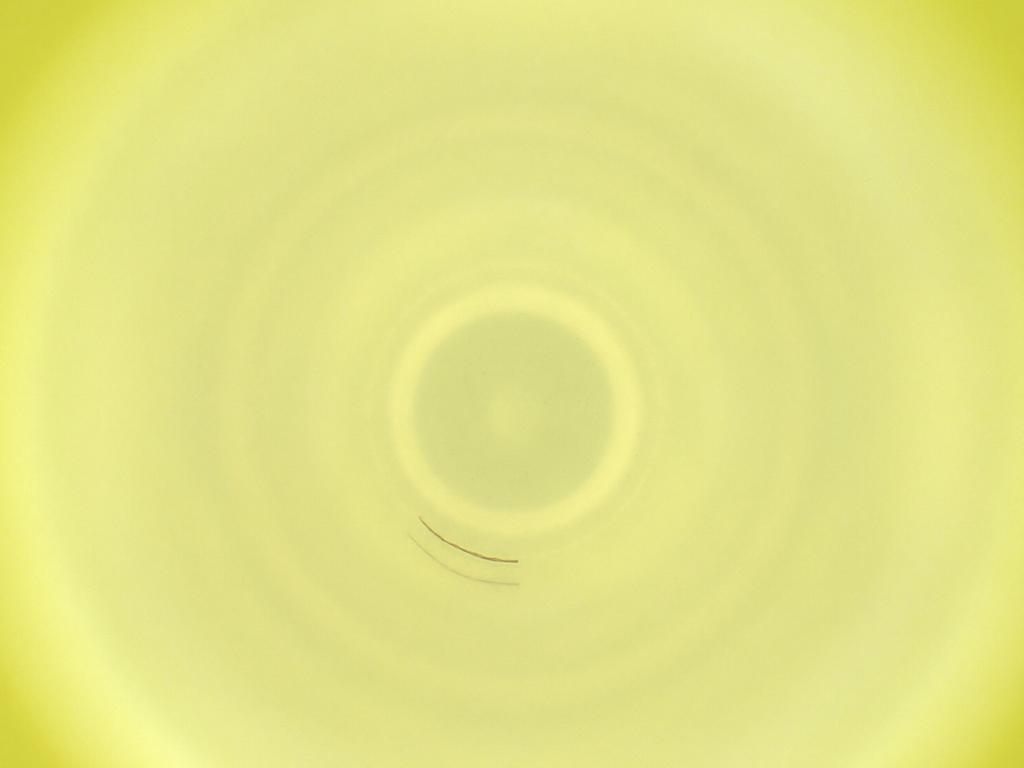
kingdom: Animalia
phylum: Arthropoda
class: Insecta
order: Diptera
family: Cecidomyiidae
